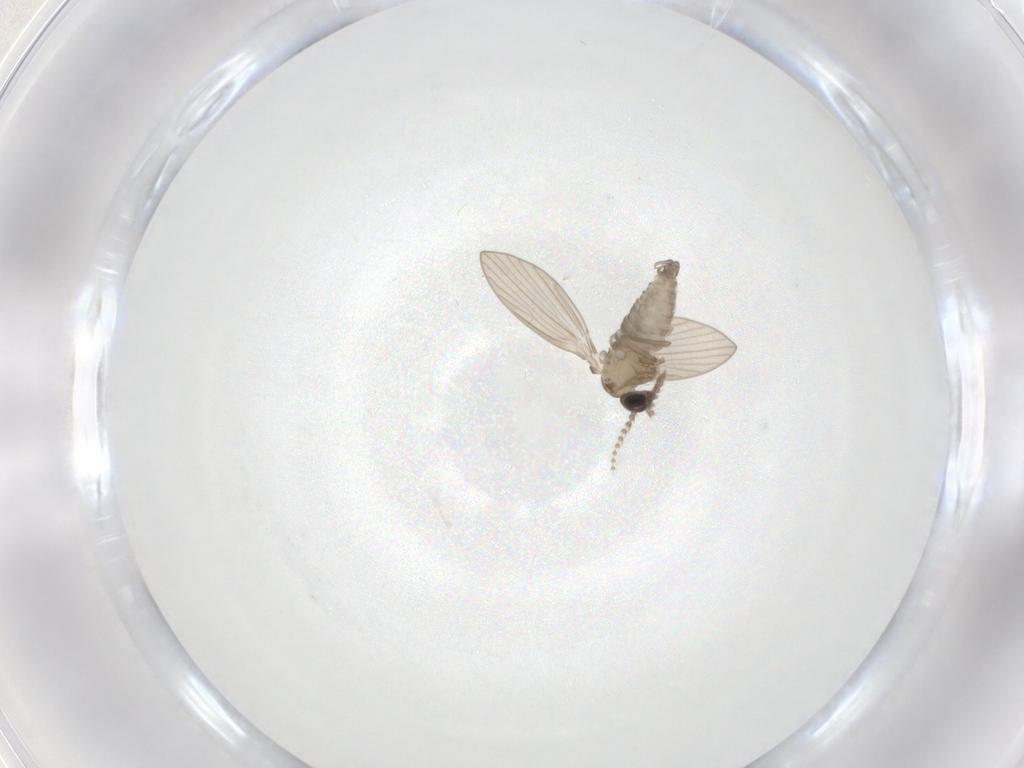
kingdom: Animalia
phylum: Arthropoda
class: Insecta
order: Diptera
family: Psychodidae
